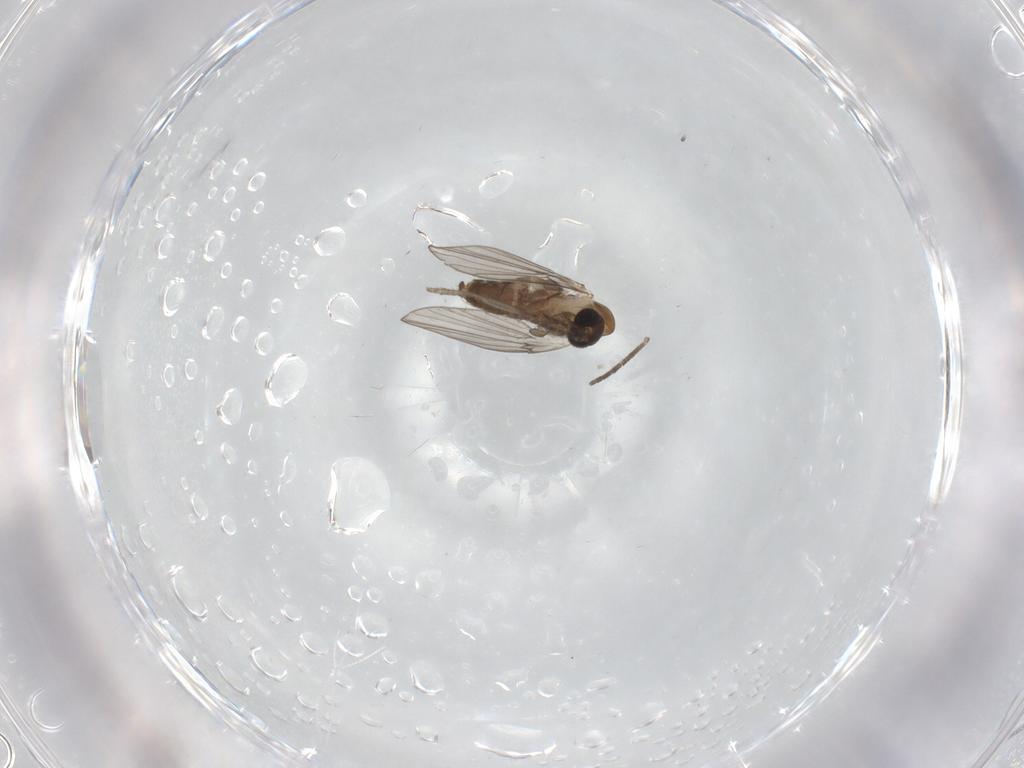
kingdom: Animalia
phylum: Arthropoda
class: Insecta
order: Diptera
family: Psychodidae
